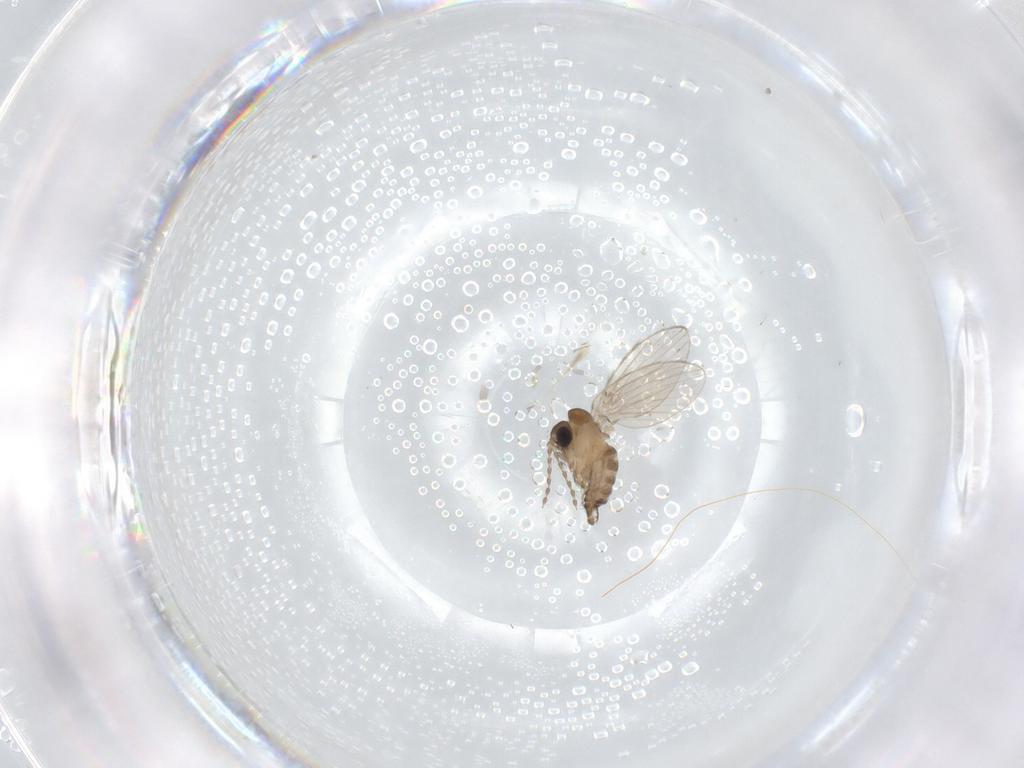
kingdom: Animalia
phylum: Arthropoda
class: Insecta
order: Diptera
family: Psychodidae
